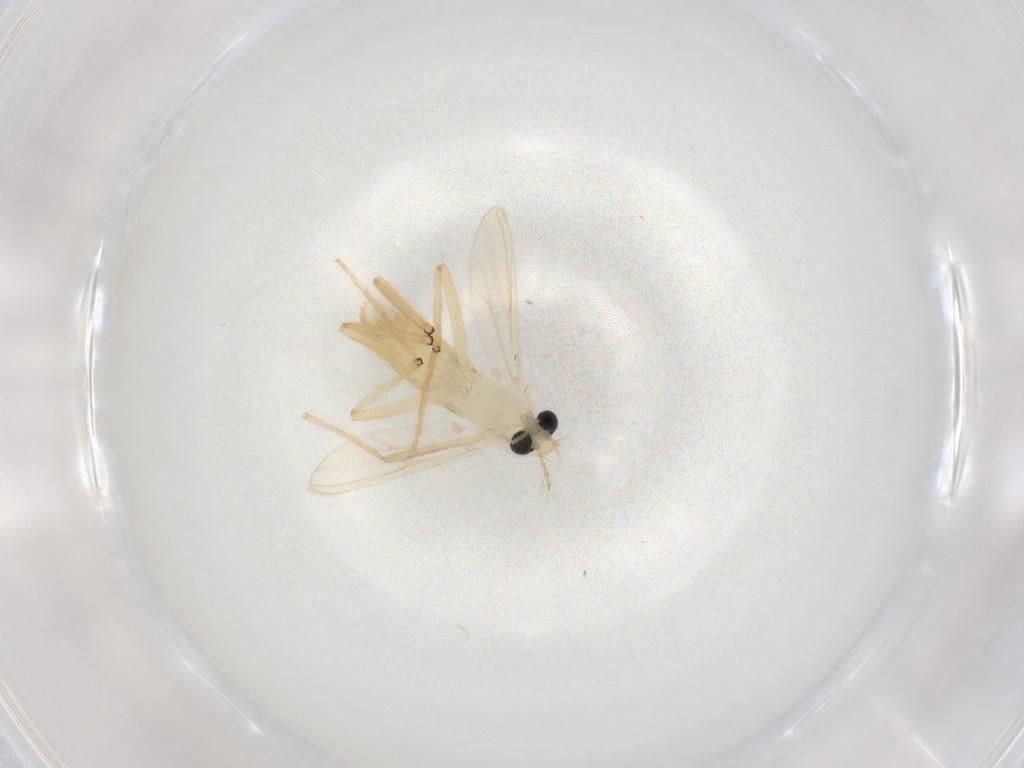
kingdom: Animalia
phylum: Arthropoda
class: Insecta
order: Diptera
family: Chironomidae
